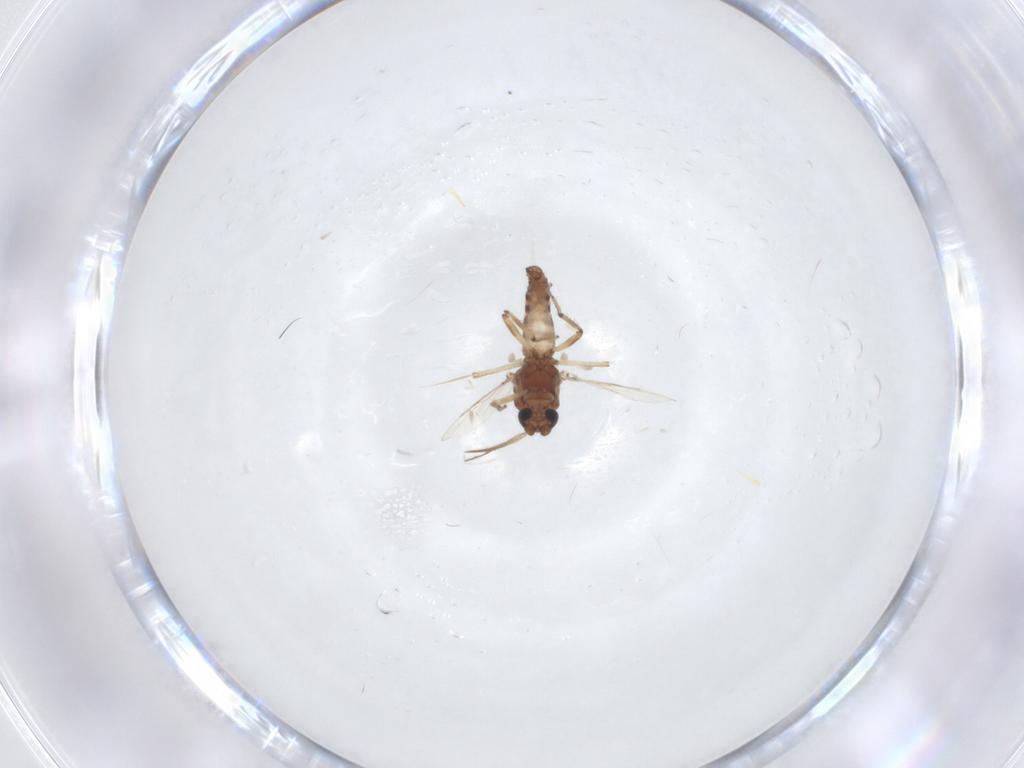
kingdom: Animalia
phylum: Arthropoda
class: Insecta
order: Diptera
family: Ceratopogonidae
